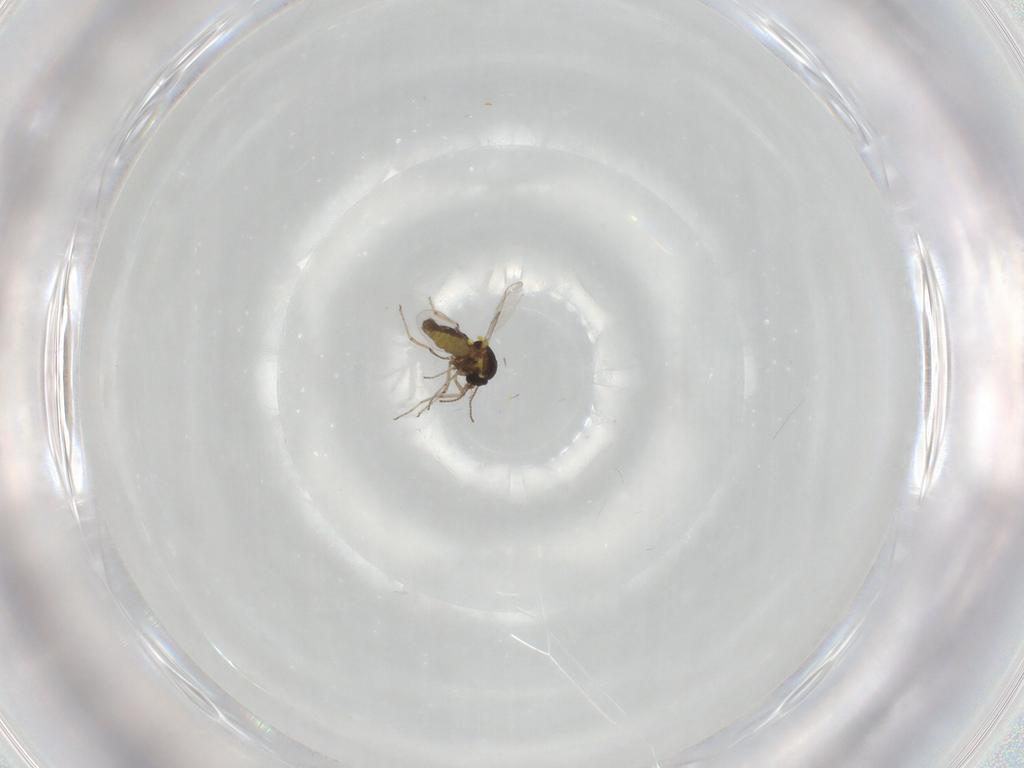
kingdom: Animalia
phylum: Arthropoda
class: Insecta
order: Diptera
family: Ceratopogonidae
